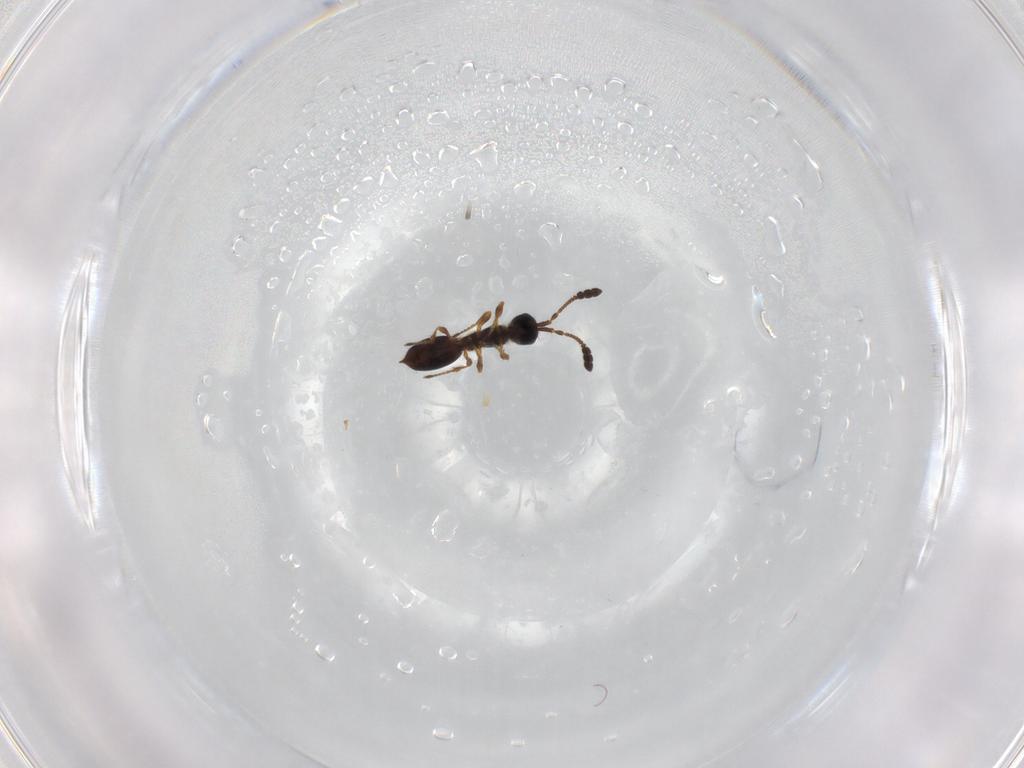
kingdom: Animalia
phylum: Arthropoda
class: Insecta
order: Hymenoptera
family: Diapriidae
